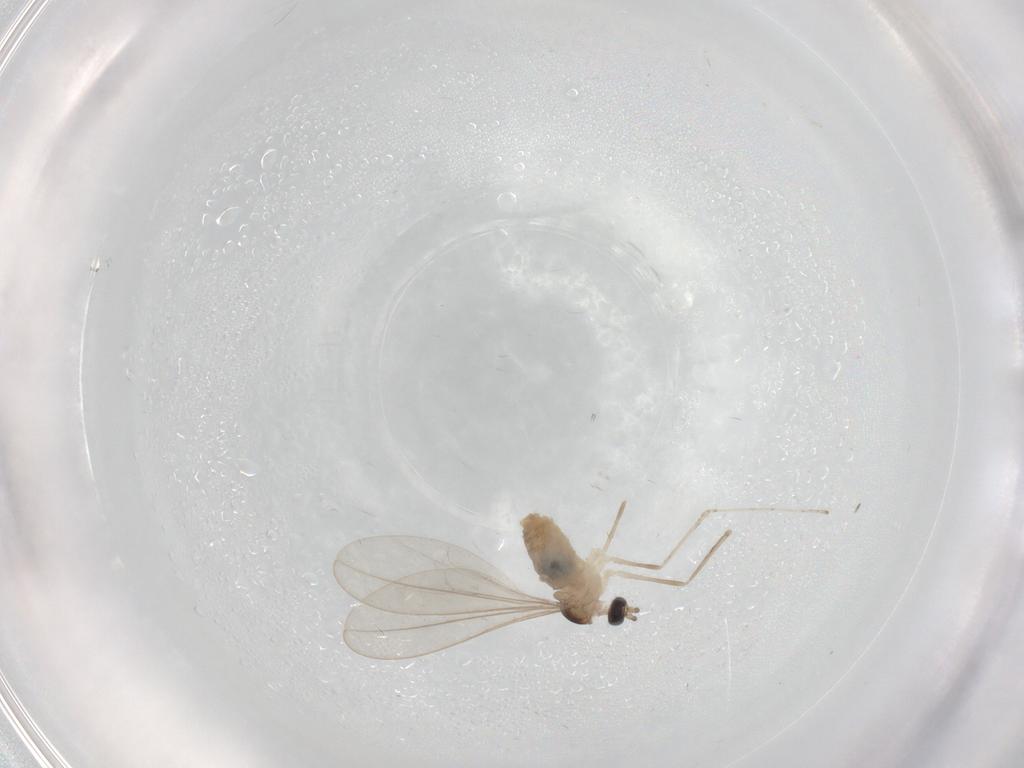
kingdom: Animalia
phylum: Arthropoda
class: Insecta
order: Diptera
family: Cecidomyiidae
